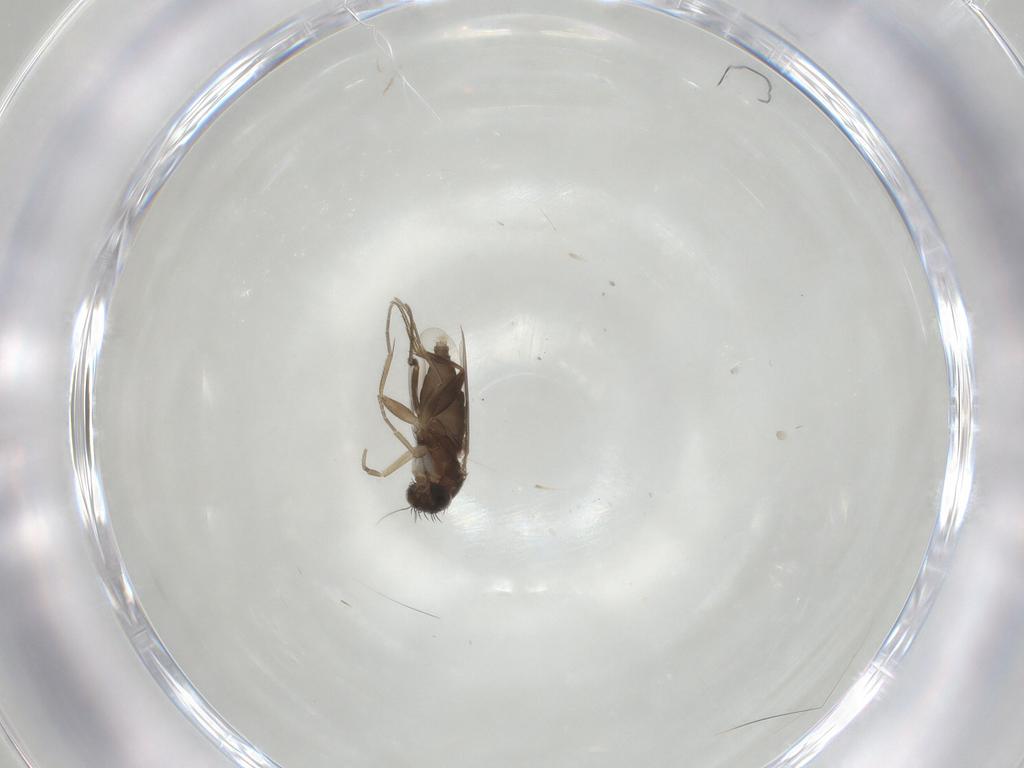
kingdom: Animalia
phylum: Arthropoda
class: Insecta
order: Diptera
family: Phoridae
